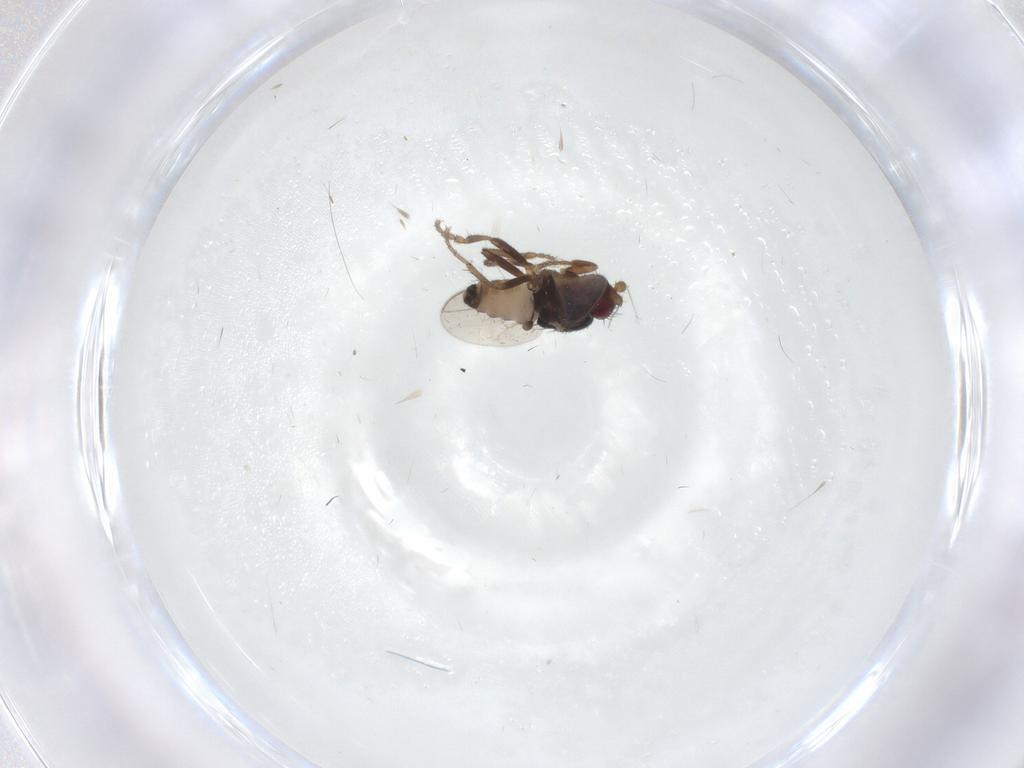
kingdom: Animalia
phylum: Arthropoda
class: Insecta
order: Diptera
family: Sphaeroceridae
